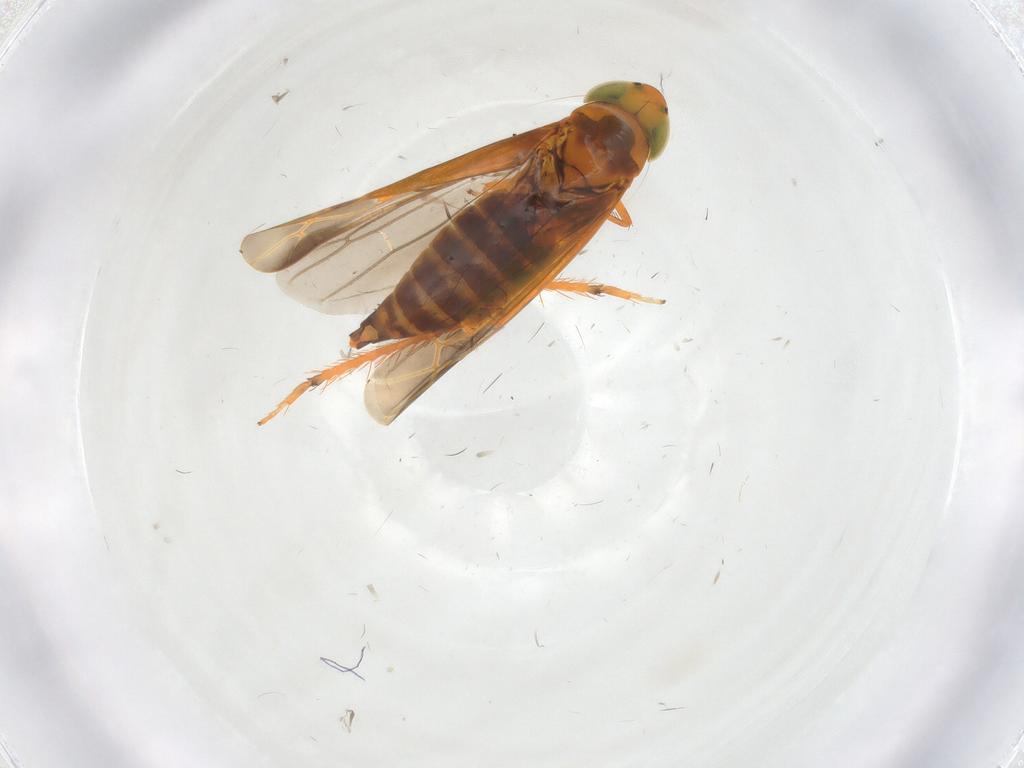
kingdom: Animalia
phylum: Arthropoda
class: Insecta
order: Hemiptera
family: Cicadellidae
